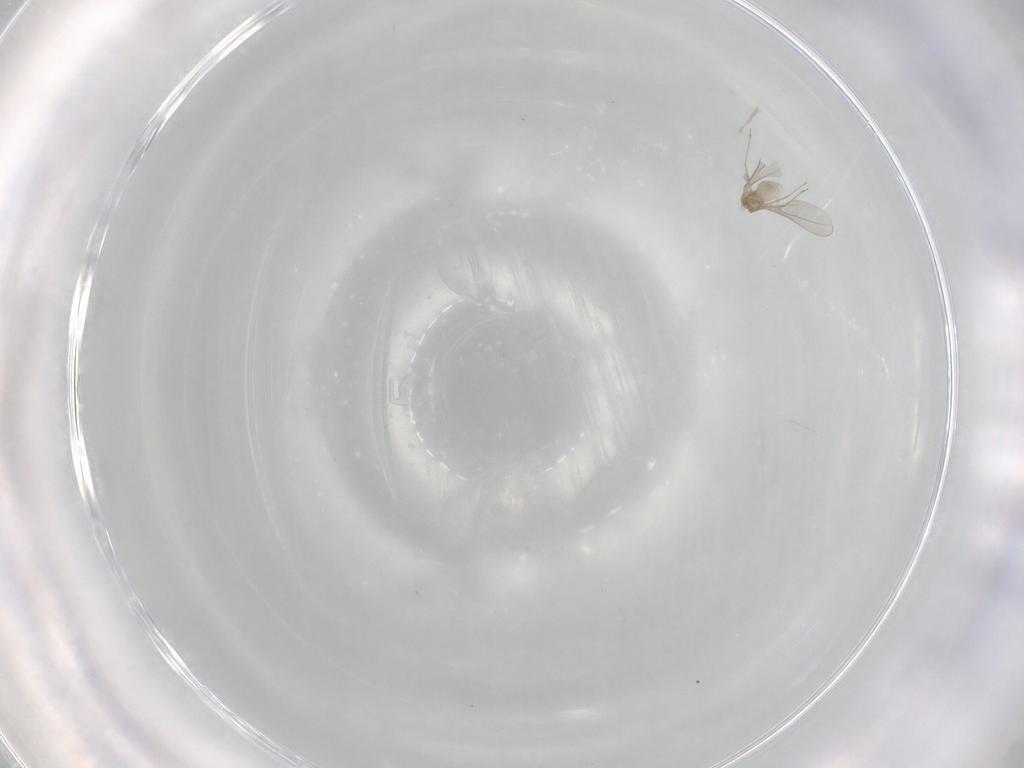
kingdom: Animalia
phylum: Arthropoda
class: Insecta
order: Diptera
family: Cecidomyiidae
